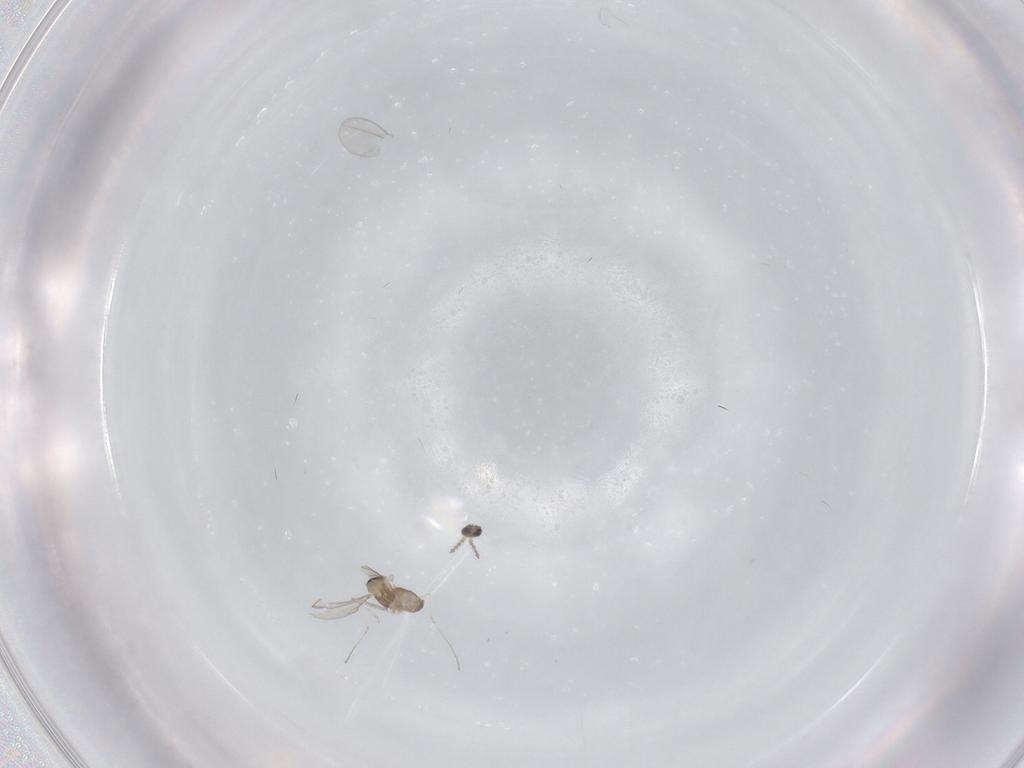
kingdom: Animalia
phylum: Arthropoda
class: Insecta
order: Diptera
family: Cecidomyiidae
